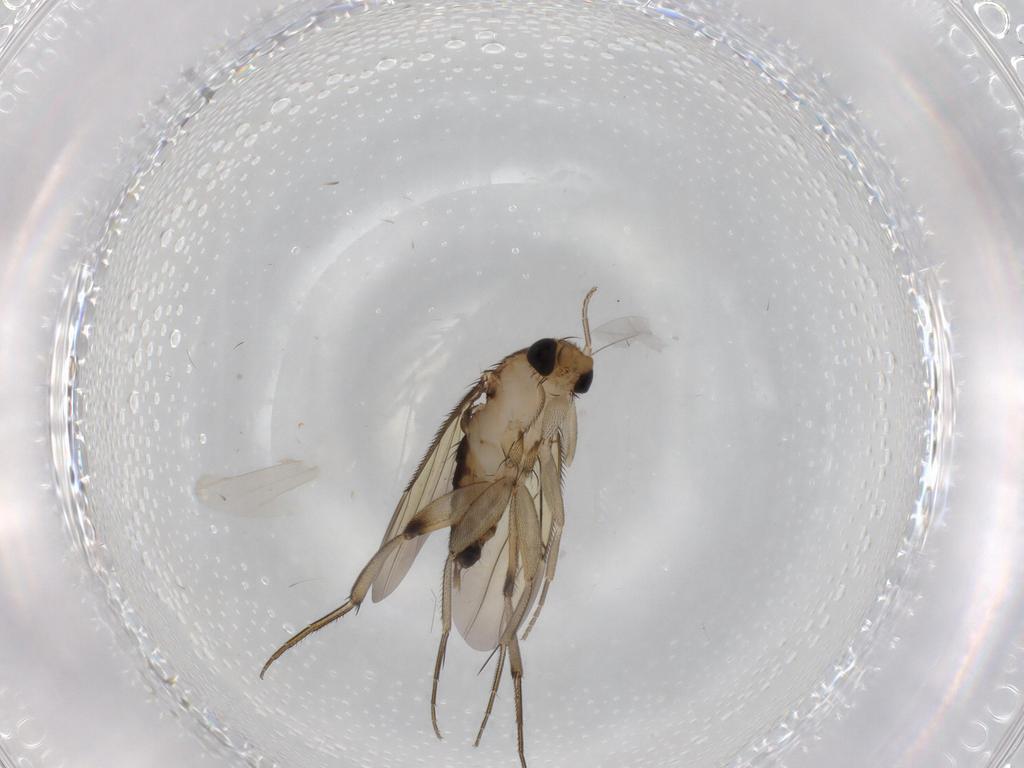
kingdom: Animalia
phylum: Arthropoda
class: Insecta
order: Diptera
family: Phoridae
